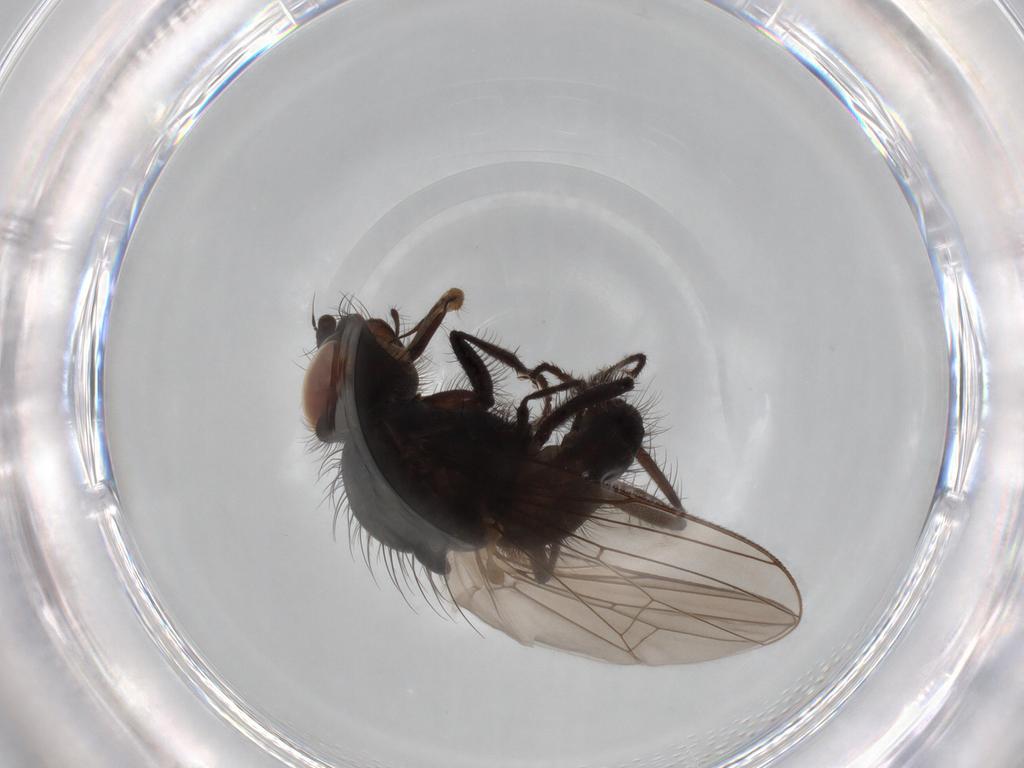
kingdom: Animalia
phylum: Arthropoda
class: Insecta
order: Diptera
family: Anthomyiidae
